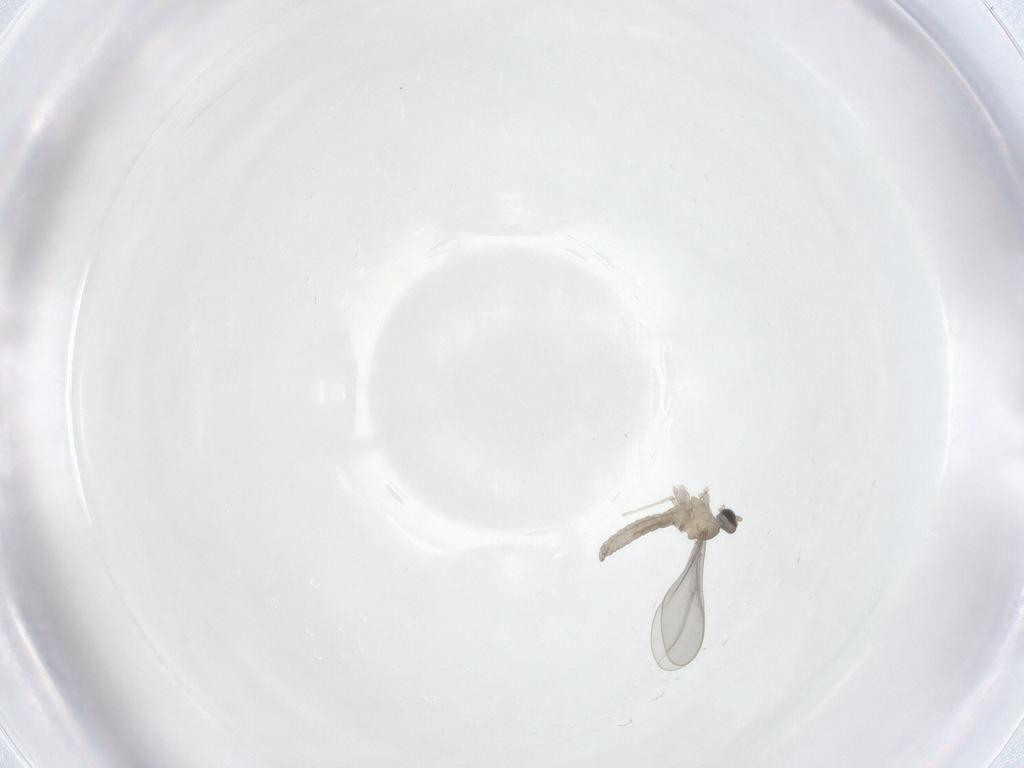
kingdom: Animalia
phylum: Arthropoda
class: Insecta
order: Diptera
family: Cecidomyiidae
